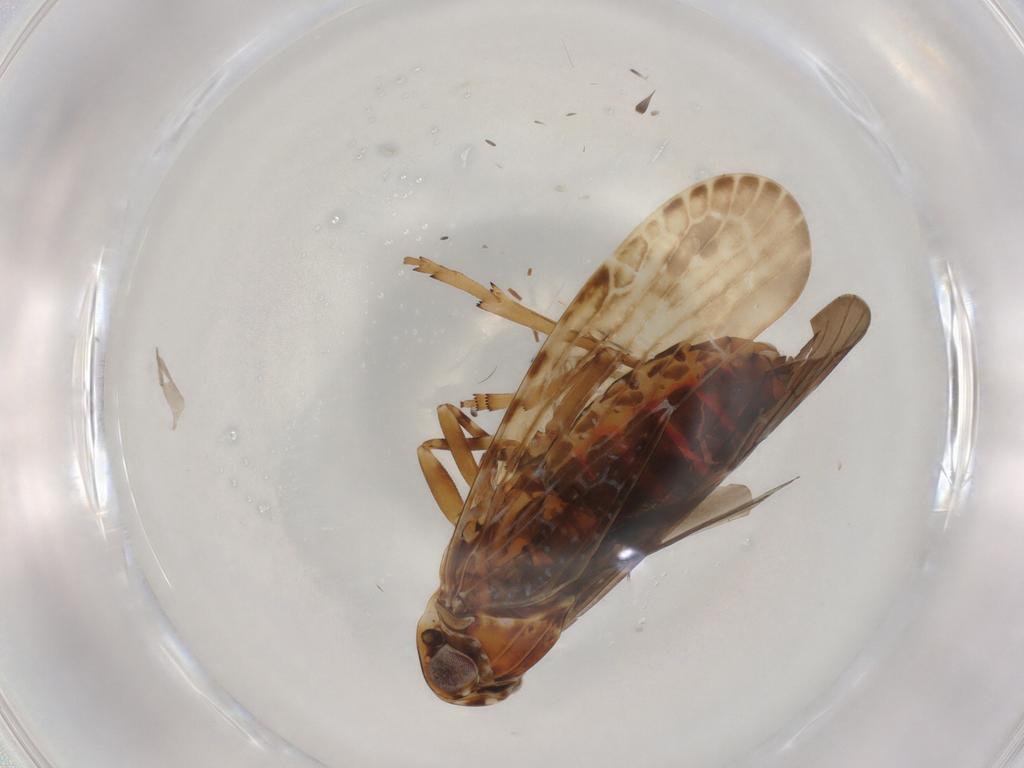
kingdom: Animalia
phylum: Arthropoda
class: Insecta
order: Hemiptera
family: Achilidae
